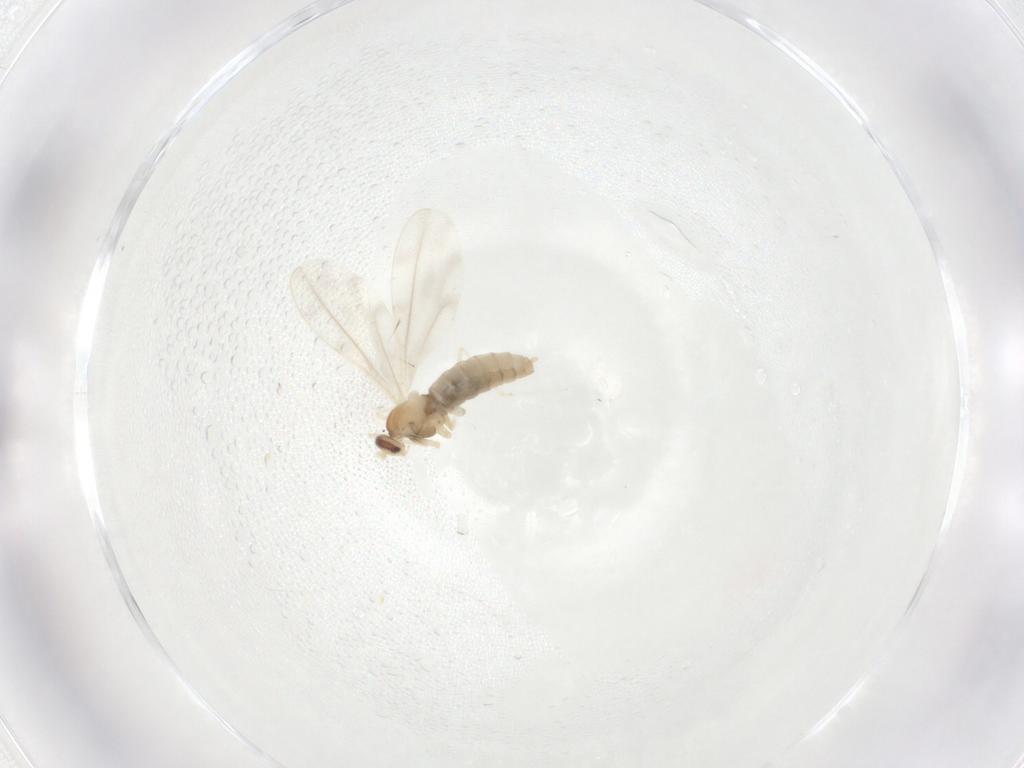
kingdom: Animalia
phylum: Arthropoda
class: Insecta
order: Diptera
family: Cecidomyiidae
